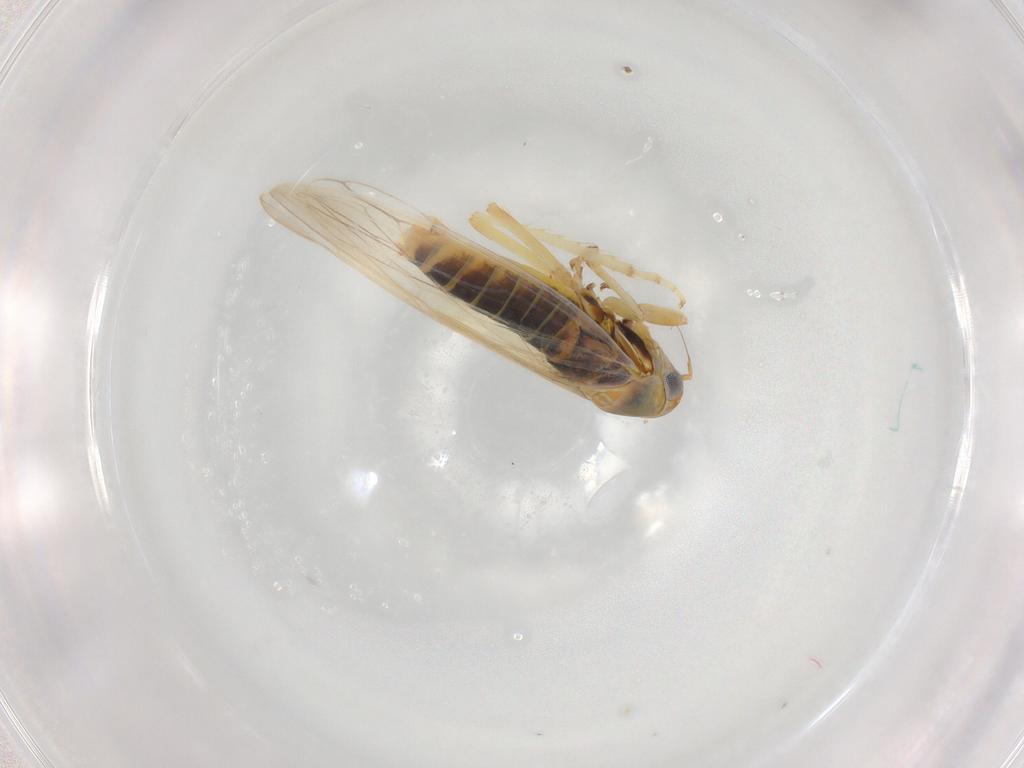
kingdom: Animalia
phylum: Arthropoda
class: Insecta
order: Hemiptera
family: Cicadellidae
